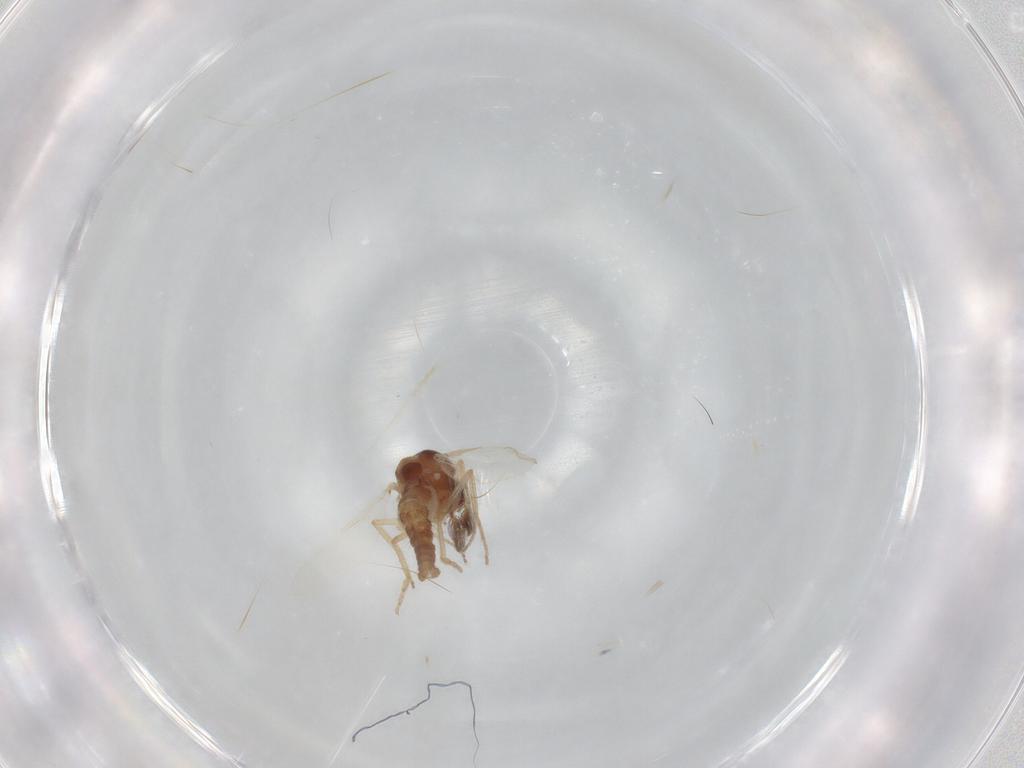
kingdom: Animalia
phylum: Arthropoda
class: Insecta
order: Diptera
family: Ceratopogonidae
